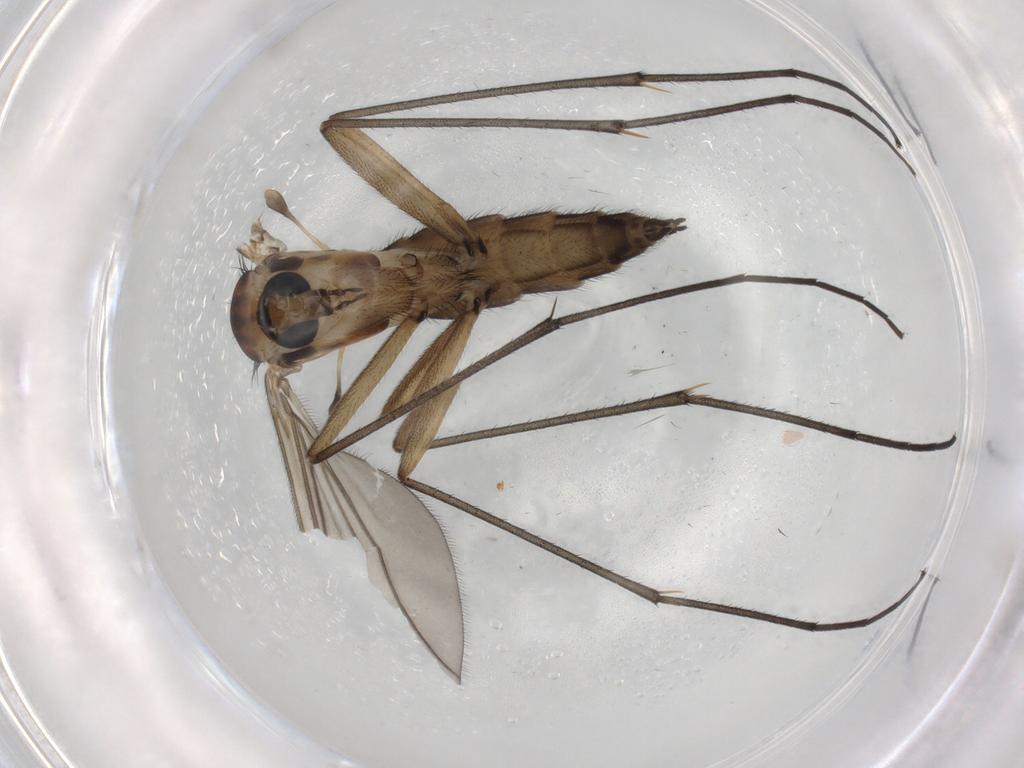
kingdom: Animalia
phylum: Arthropoda
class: Insecta
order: Diptera
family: Sciaridae
